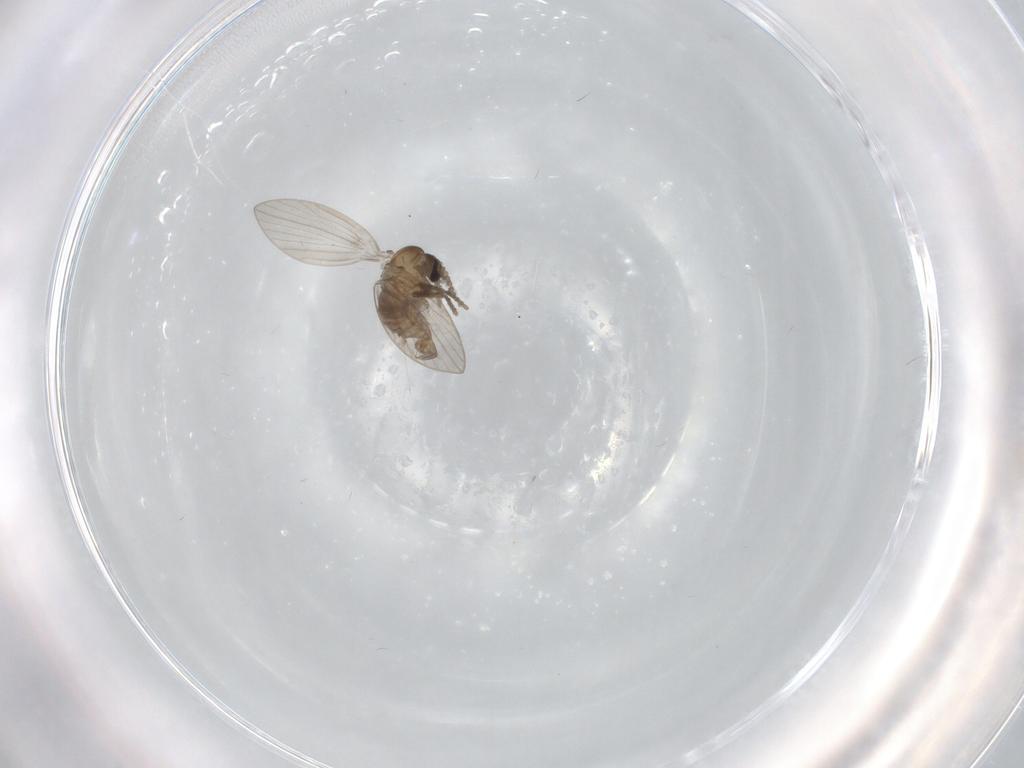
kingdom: Animalia
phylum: Arthropoda
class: Insecta
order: Diptera
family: Psychodidae
